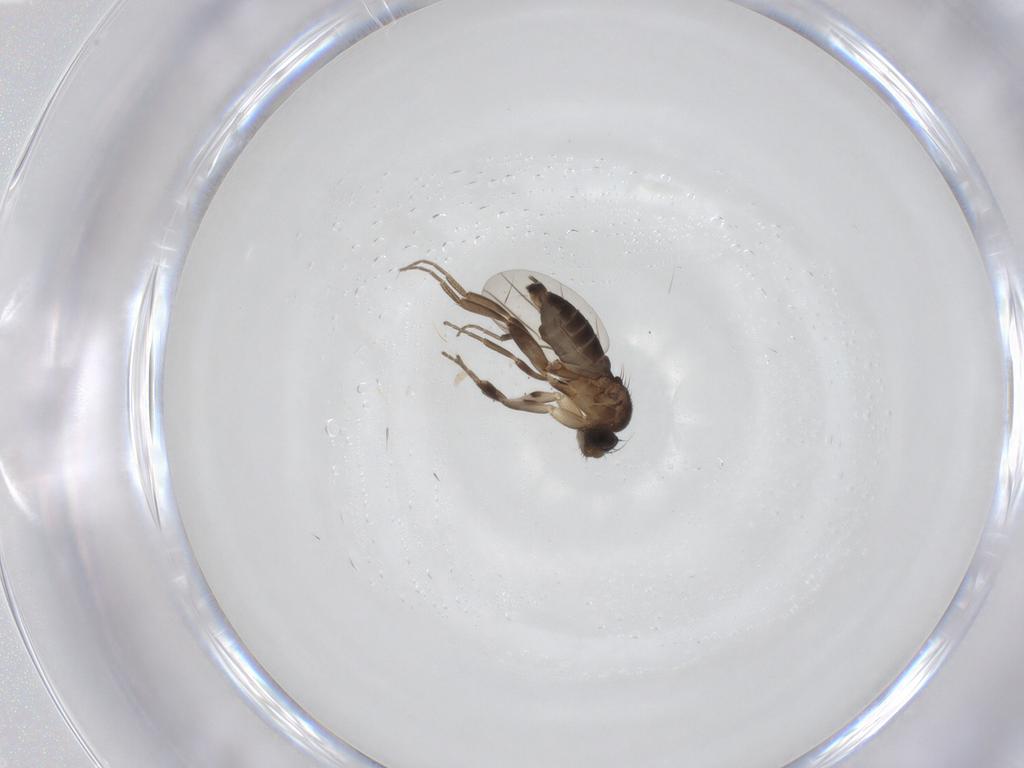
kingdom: Animalia
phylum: Arthropoda
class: Insecta
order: Diptera
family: Phoridae
